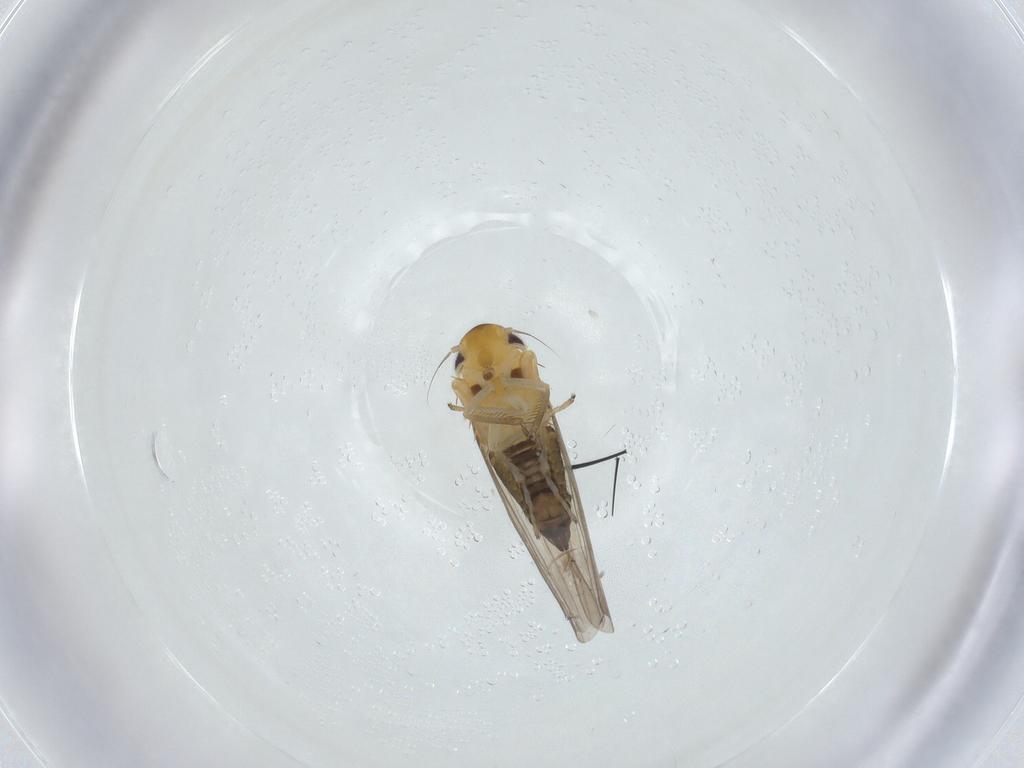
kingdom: Animalia
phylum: Arthropoda
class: Insecta
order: Hemiptera
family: Cicadellidae
